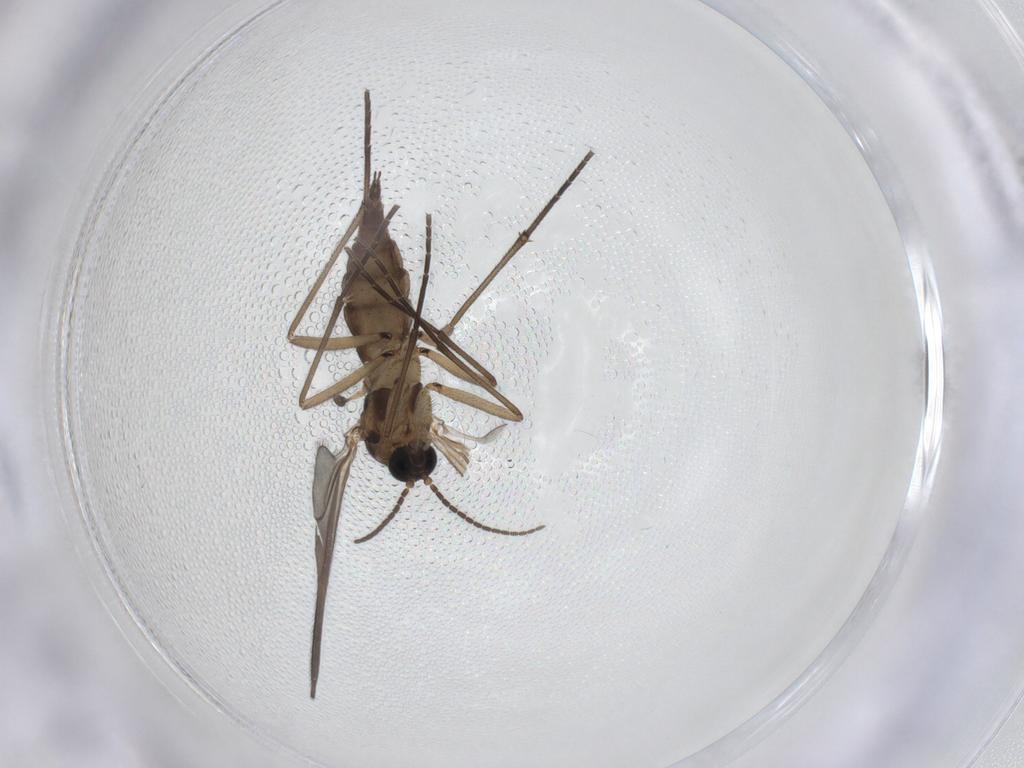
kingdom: Animalia
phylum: Arthropoda
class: Insecta
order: Diptera
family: Sciaridae
